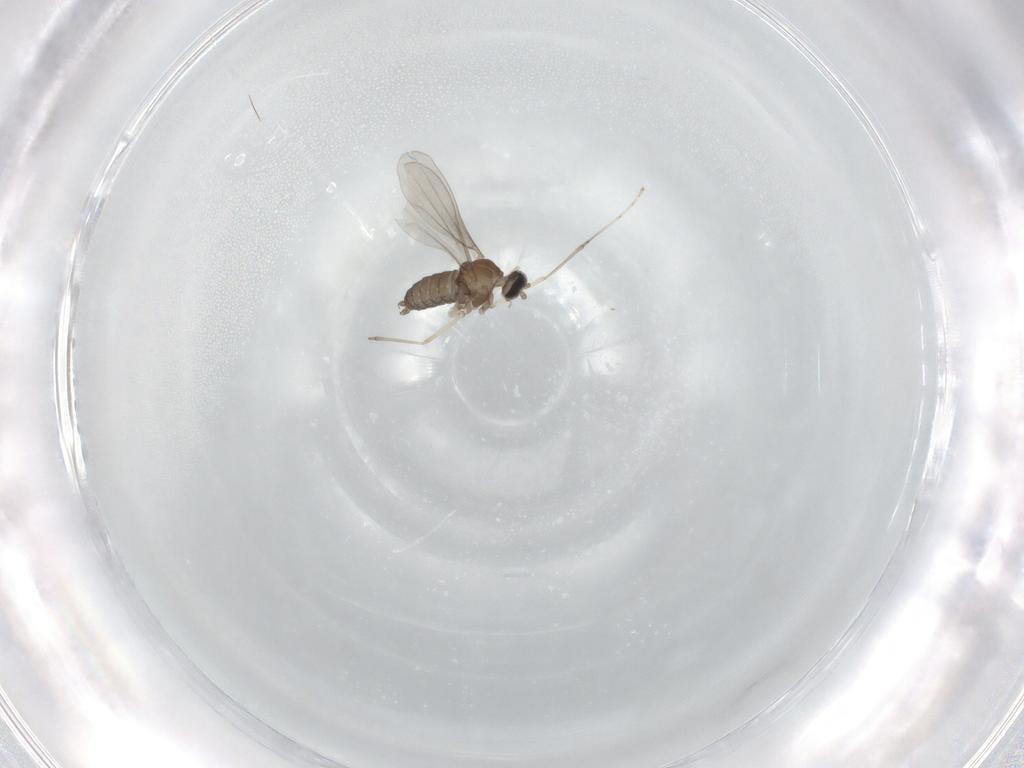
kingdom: Animalia
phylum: Arthropoda
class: Insecta
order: Diptera
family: Cecidomyiidae
